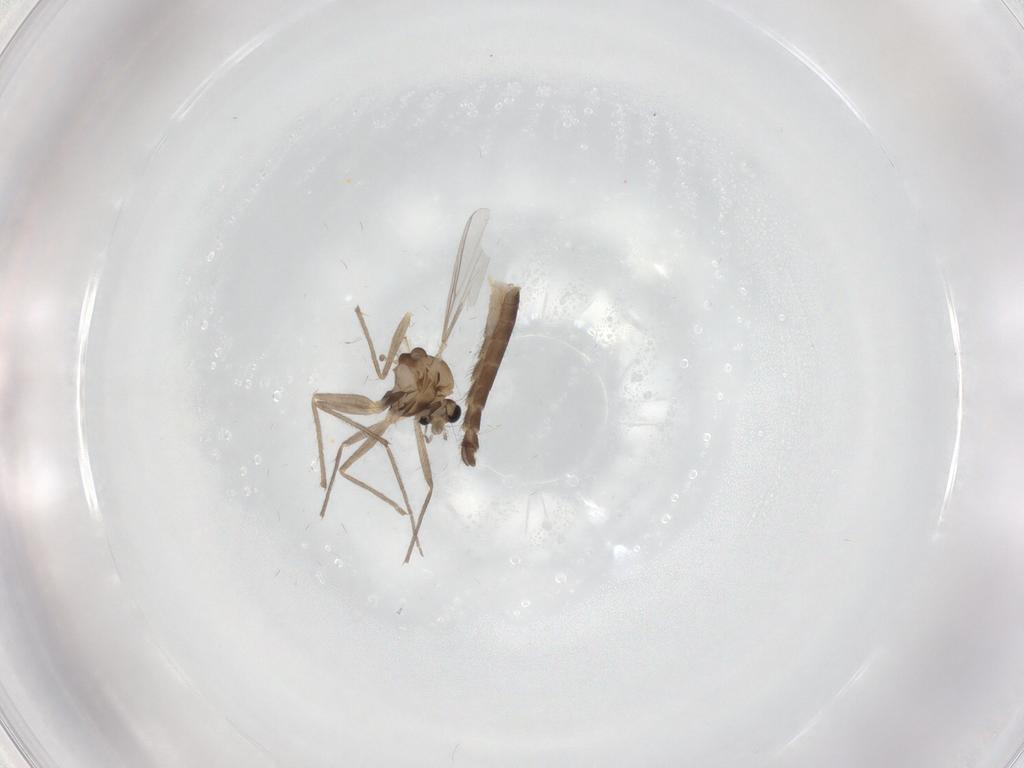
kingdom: Animalia
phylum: Arthropoda
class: Insecta
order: Diptera
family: Chironomidae
